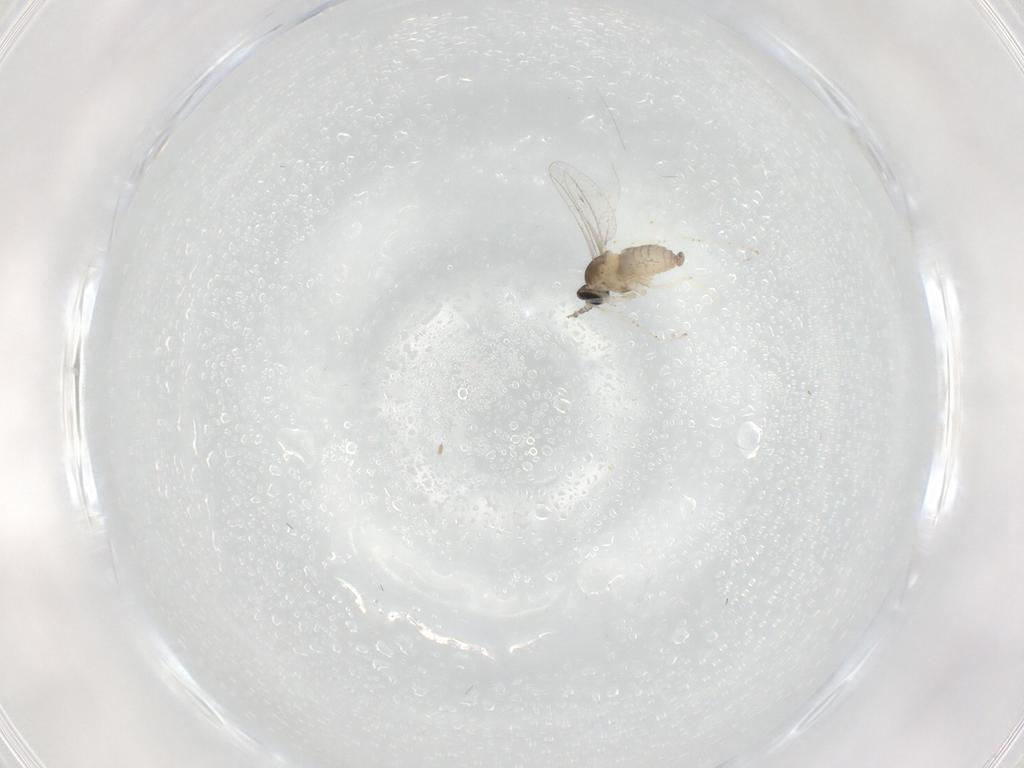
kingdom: Animalia
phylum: Arthropoda
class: Insecta
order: Diptera
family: Cecidomyiidae
